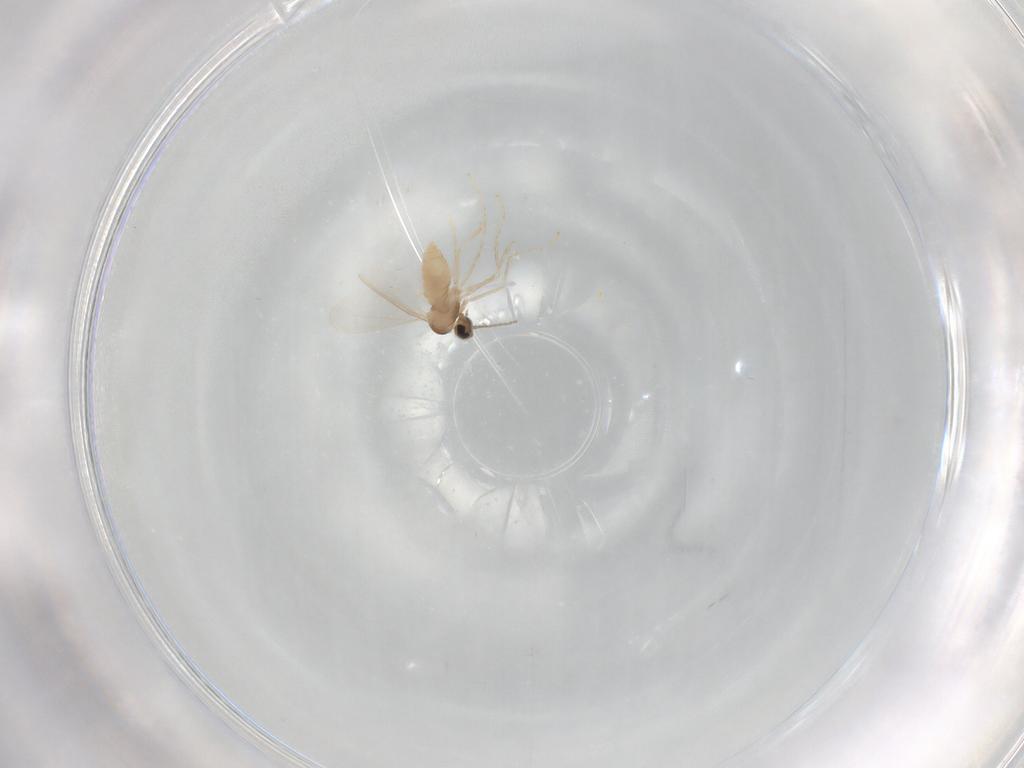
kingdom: Animalia
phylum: Arthropoda
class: Insecta
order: Diptera
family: Cecidomyiidae
